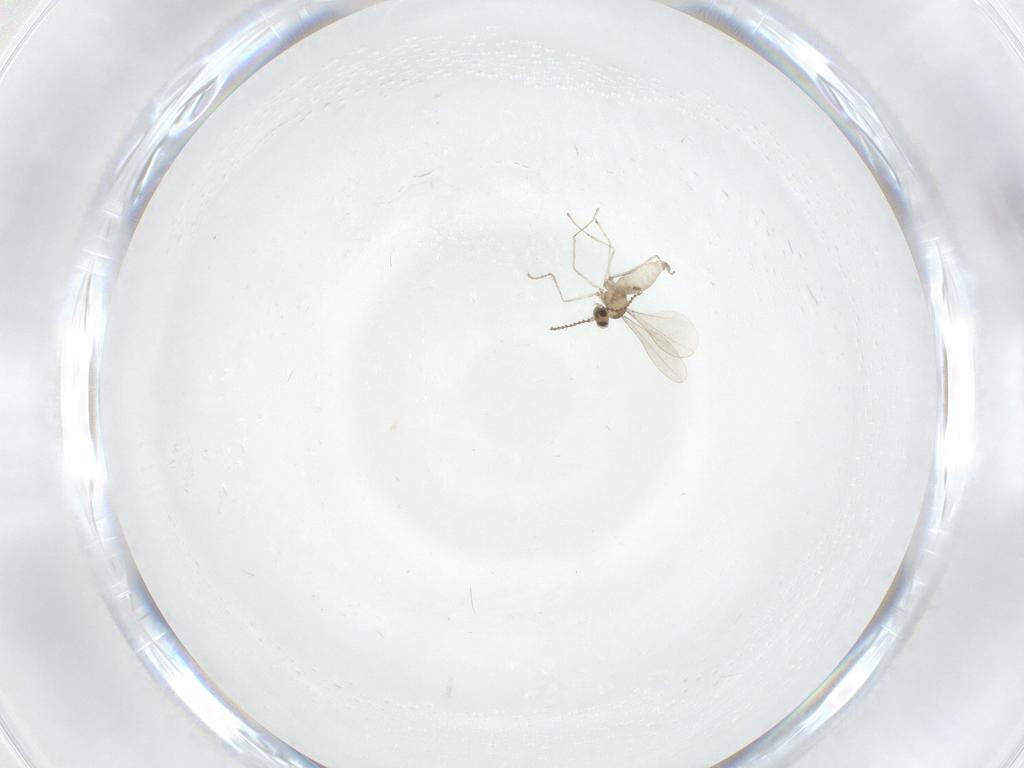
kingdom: Animalia
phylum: Arthropoda
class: Insecta
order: Diptera
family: Cecidomyiidae
